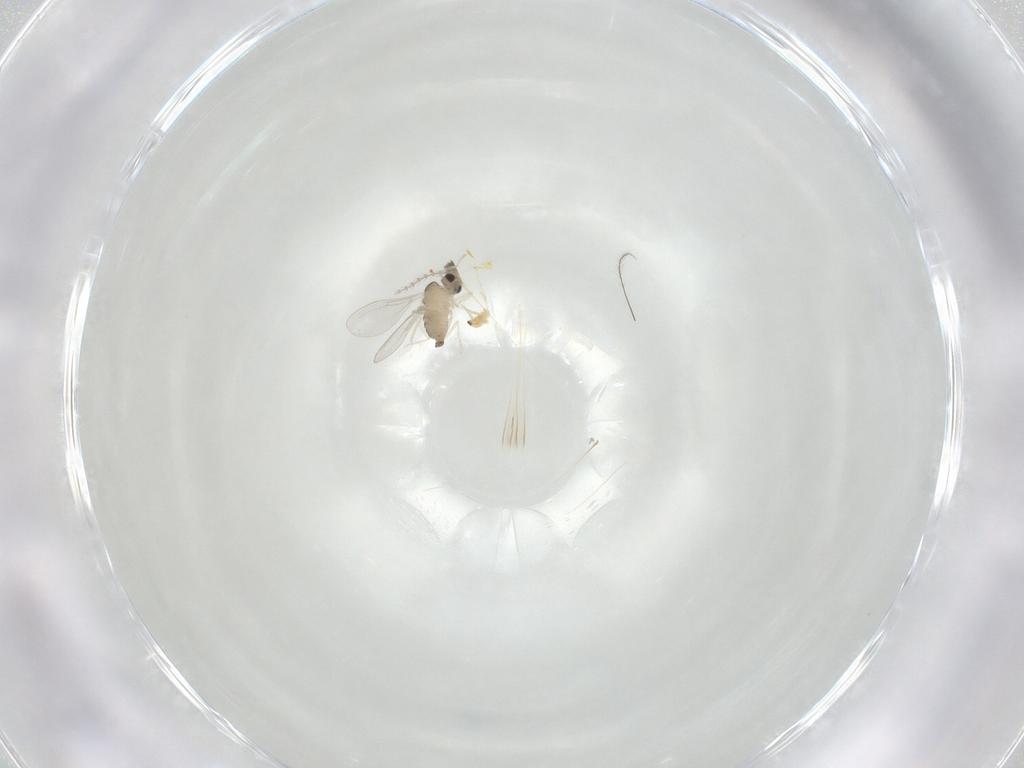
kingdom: Animalia
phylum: Arthropoda
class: Insecta
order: Diptera
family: Cecidomyiidae
